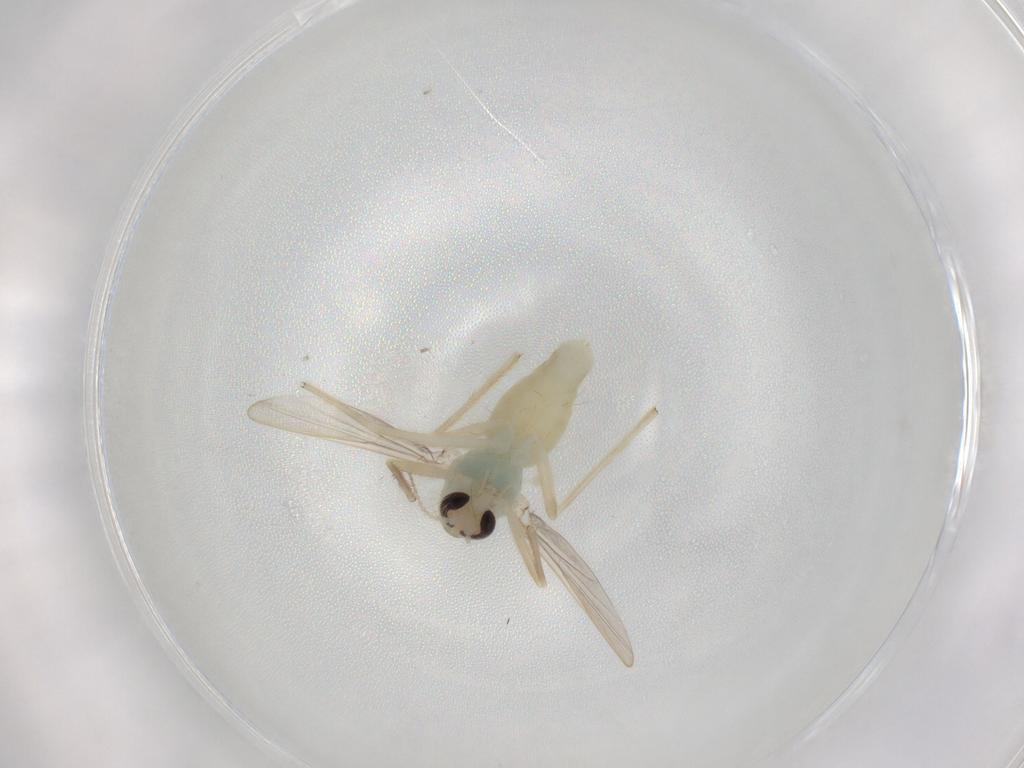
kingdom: Animalia
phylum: Arthropoda
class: Insecta
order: Diptera
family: Chironomidae
